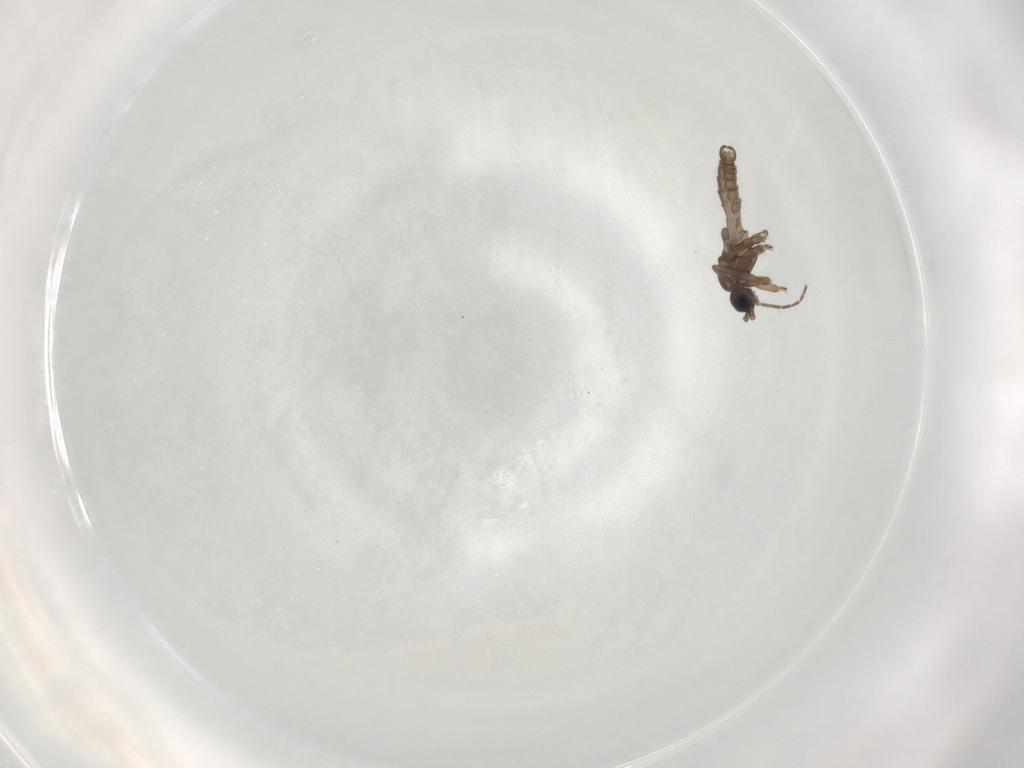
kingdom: Animalia
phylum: Arthropoda
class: Insecta
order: Diptera
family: Sciaridae
